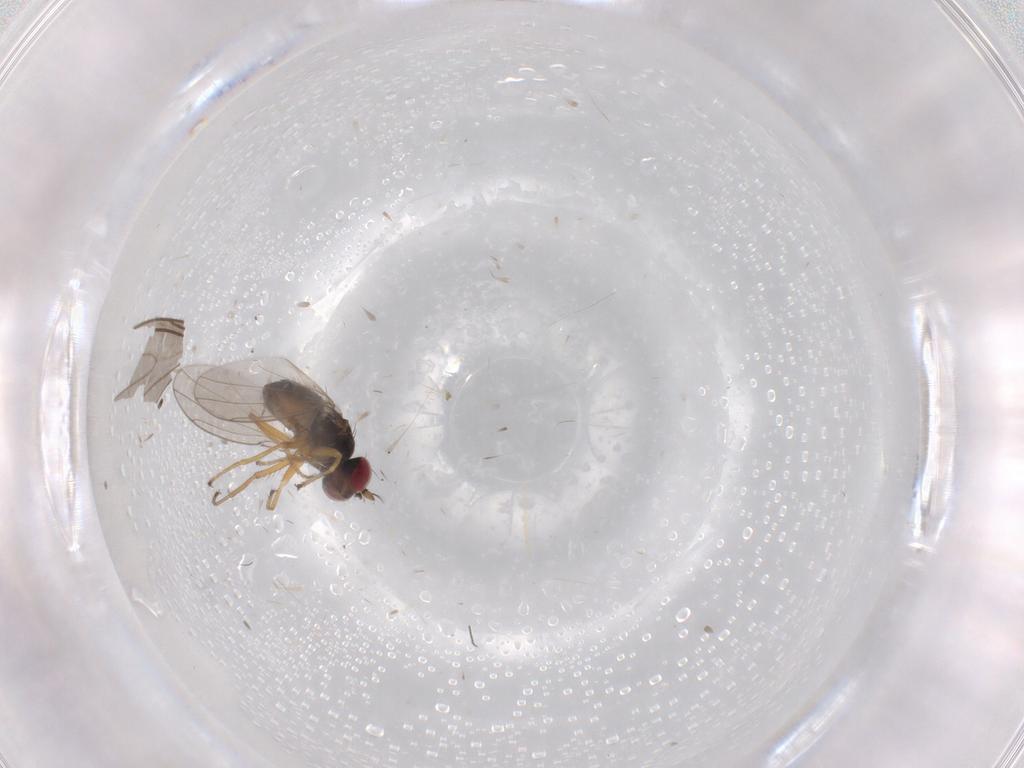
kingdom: Animalia
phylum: Arthropoda
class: Insecta
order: Diptera
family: Ephydridae
